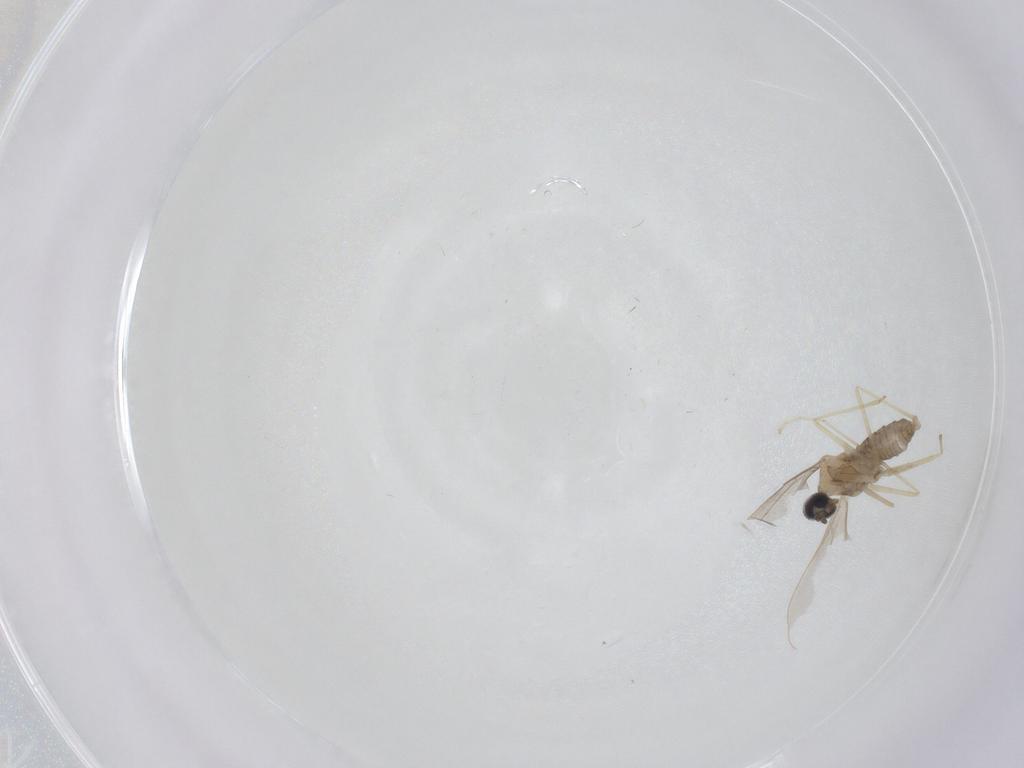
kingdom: Animalia
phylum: Arthropoda
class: Insecta
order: Diptera
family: Cecidomyiidae
